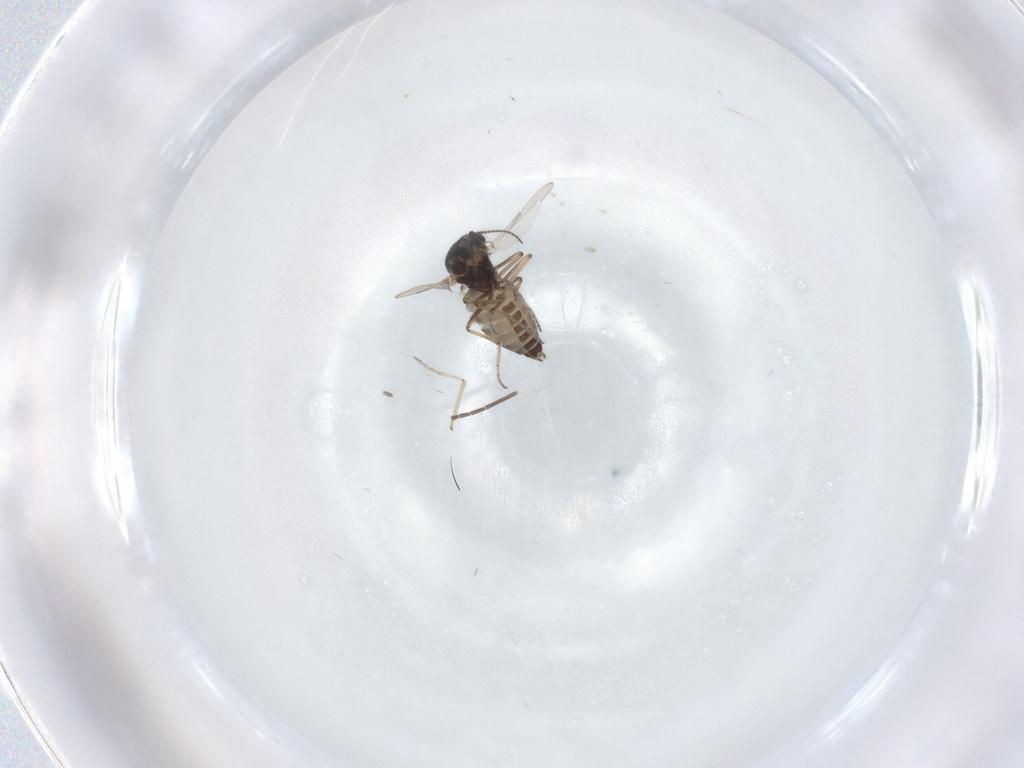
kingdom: Animalia
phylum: Arthropoda
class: Insecta
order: Diptera
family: Ceratopogonidae
